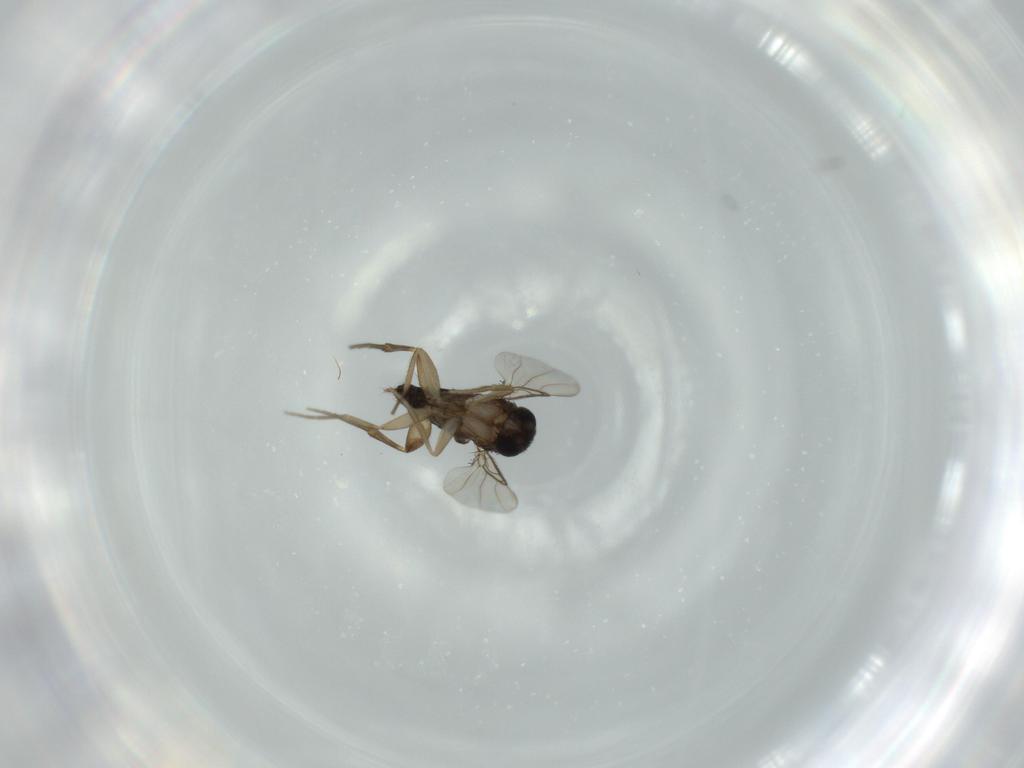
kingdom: Animalia
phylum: Arthropoda
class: Insecta
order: Diptera
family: Phoridae
